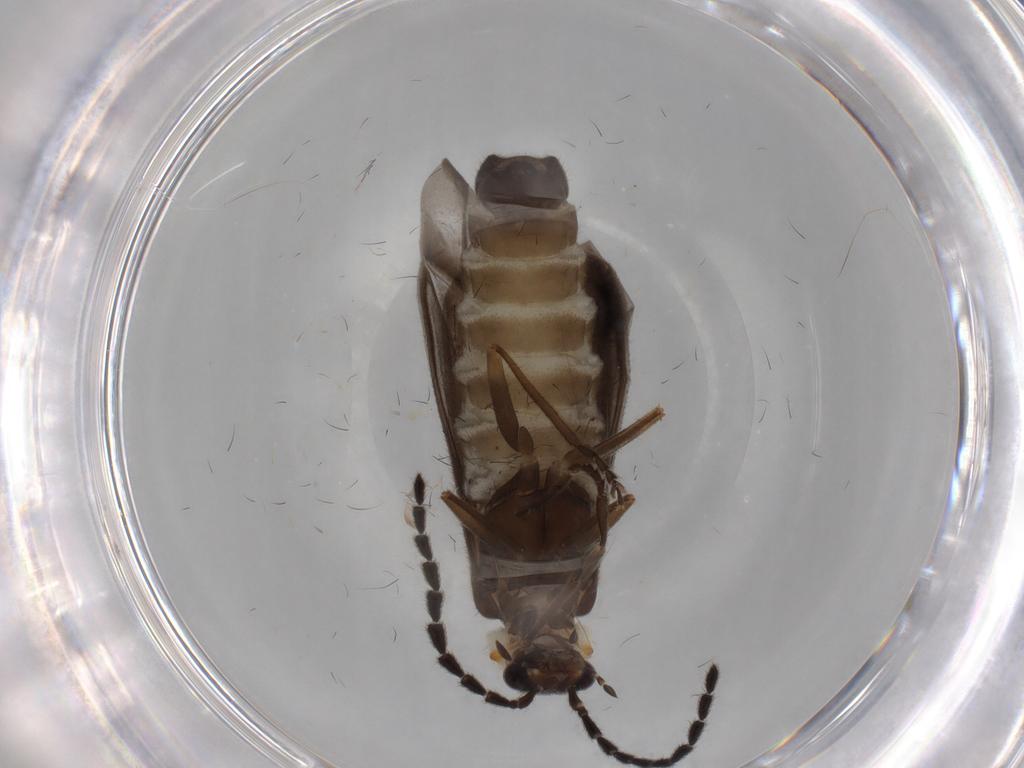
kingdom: Animalia
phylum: Arthropoda
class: Insecta
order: Coleoptera
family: Cantharidae
